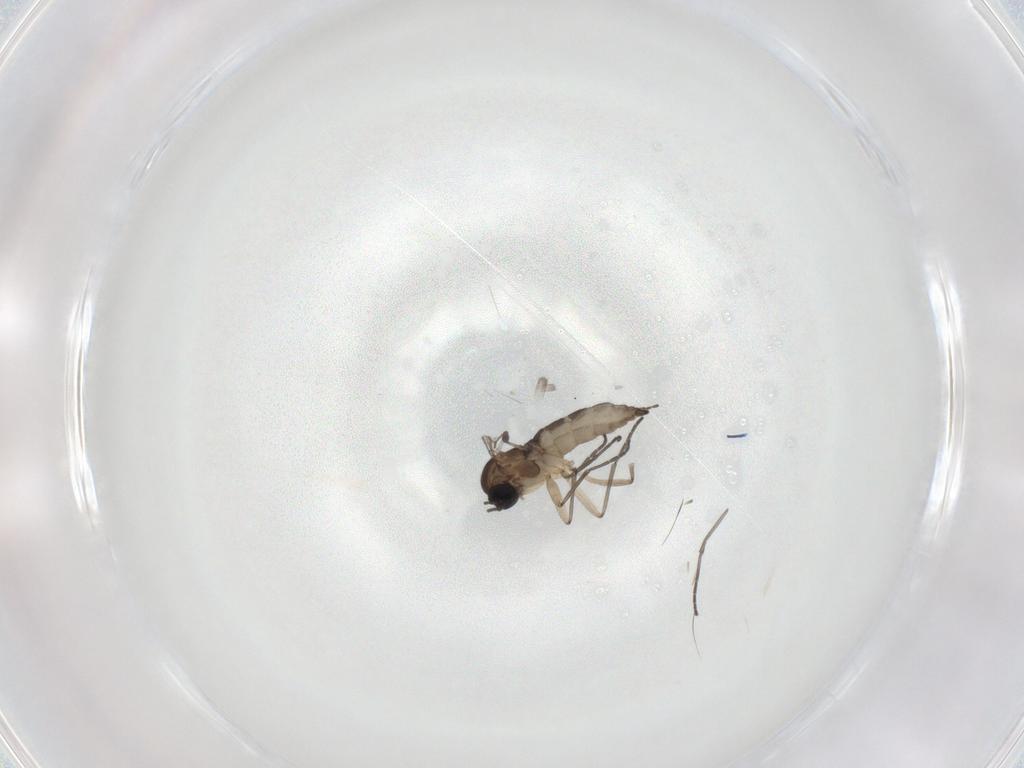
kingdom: Animalia
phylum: Arthropoda
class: Insecta
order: Diptera
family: Sciaridae
